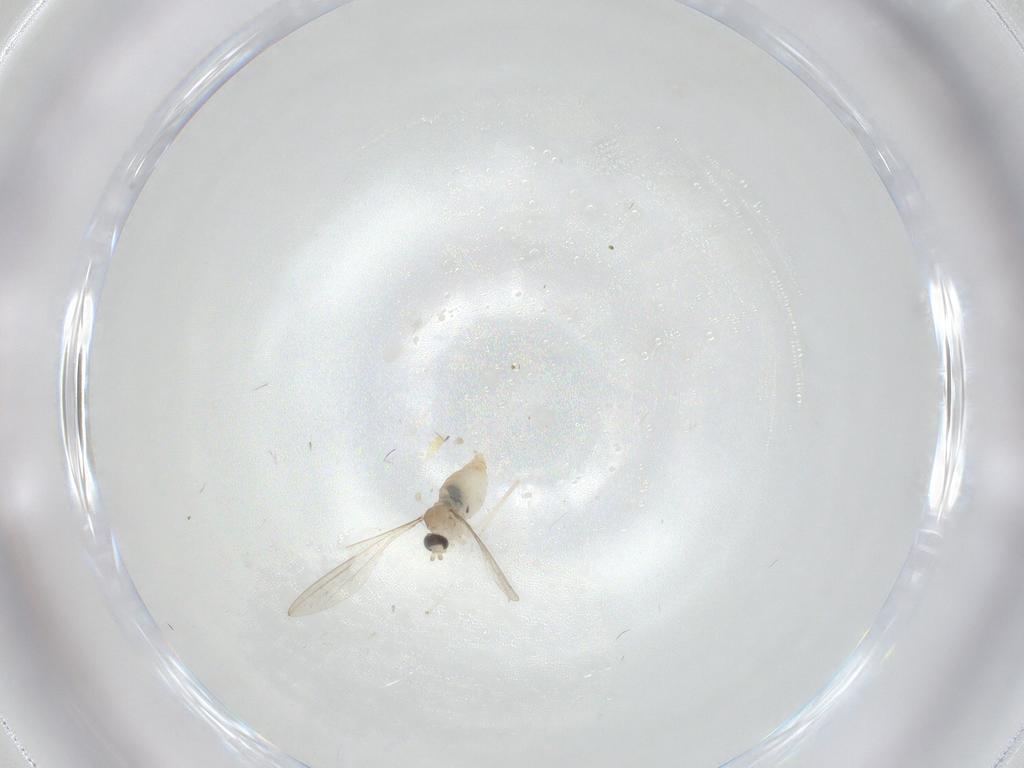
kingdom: Animalia
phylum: Arthropoda
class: Insecta
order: Diptera
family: Cecidomyiidae
